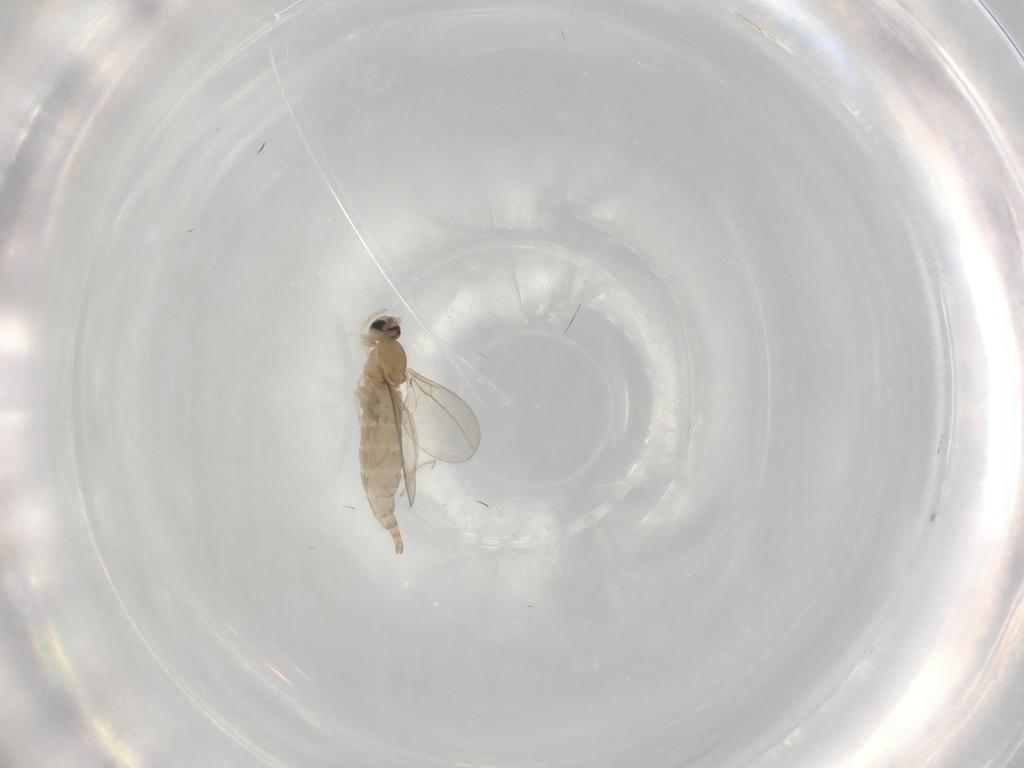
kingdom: Animalia
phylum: Arthropoda
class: Insecta
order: Diptera
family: Cecidomyiidae
